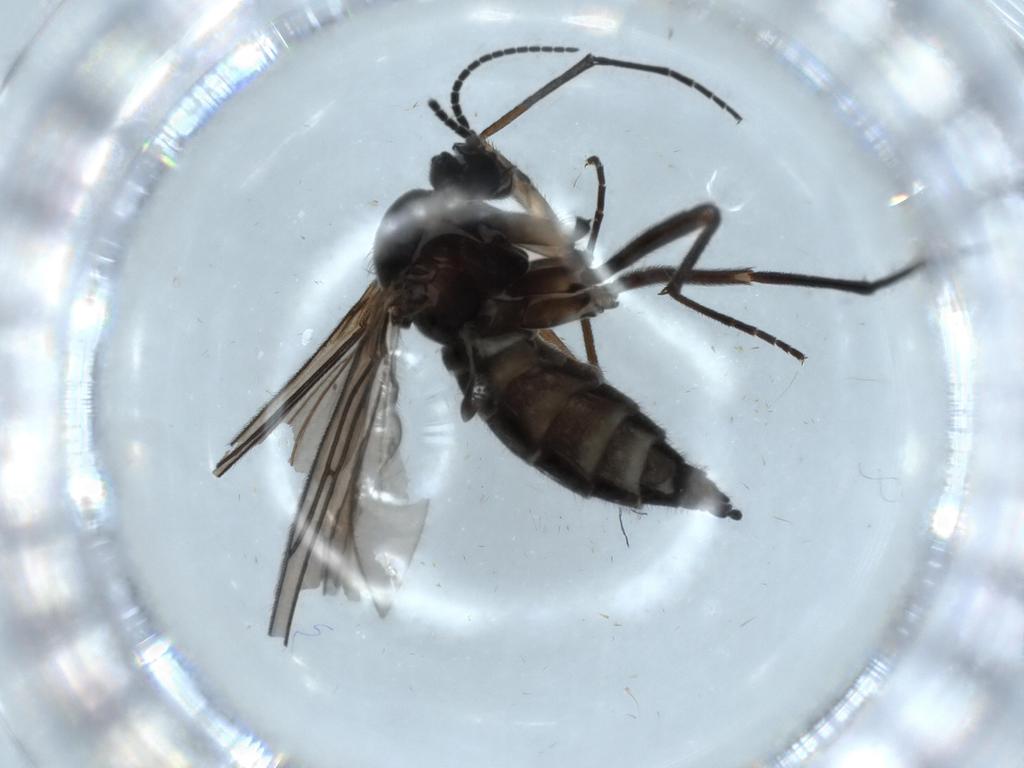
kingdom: Animalia
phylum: Arthropoda
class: Insecta
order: Diptera
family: Sciaridae
